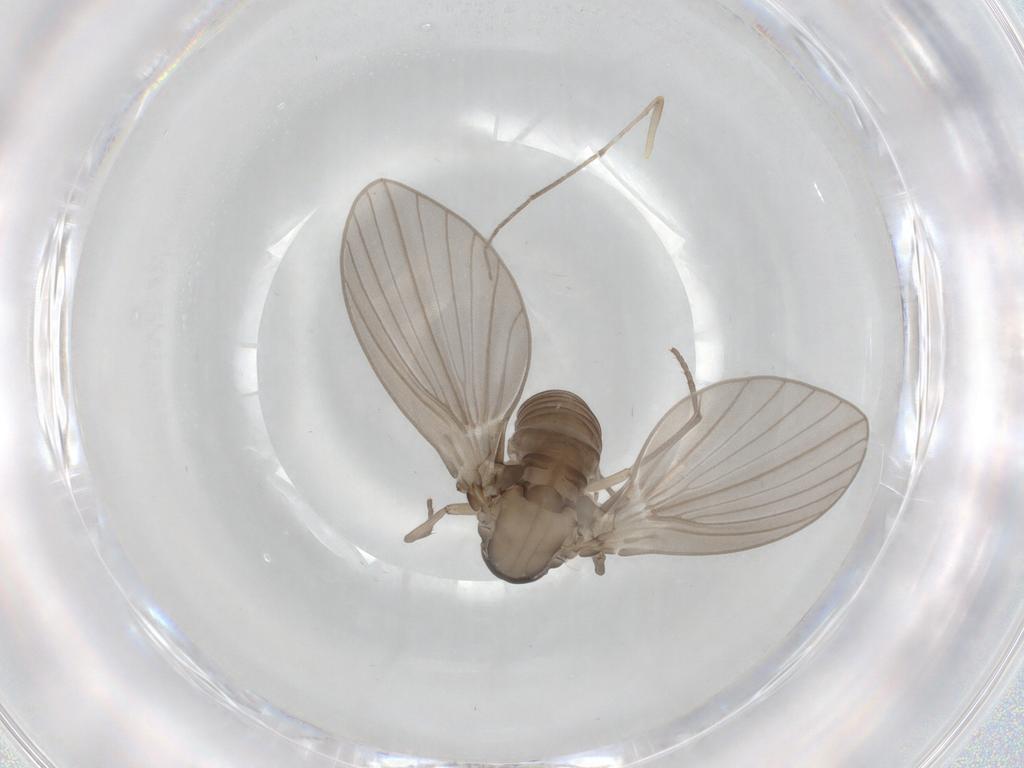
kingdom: Animalia
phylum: Arthropoda
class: Insecta
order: Diptera
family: Psychodidae
